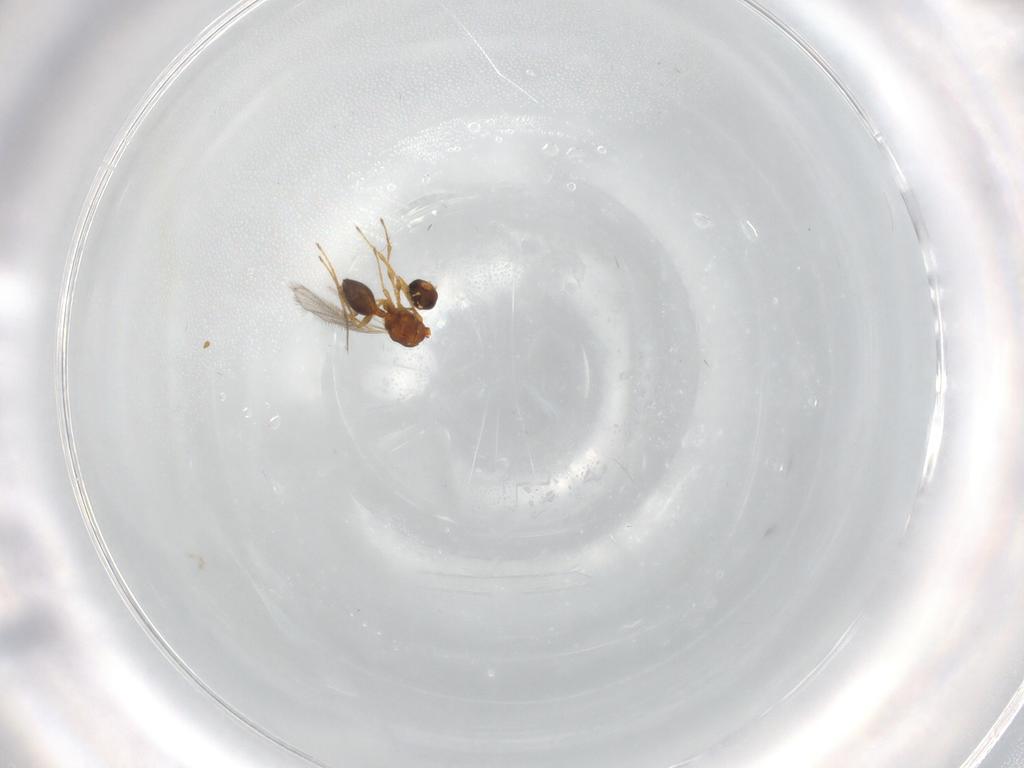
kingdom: Animalia
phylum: Arthropoda
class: Insecta
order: Hymenoptera
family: Diapriidae
